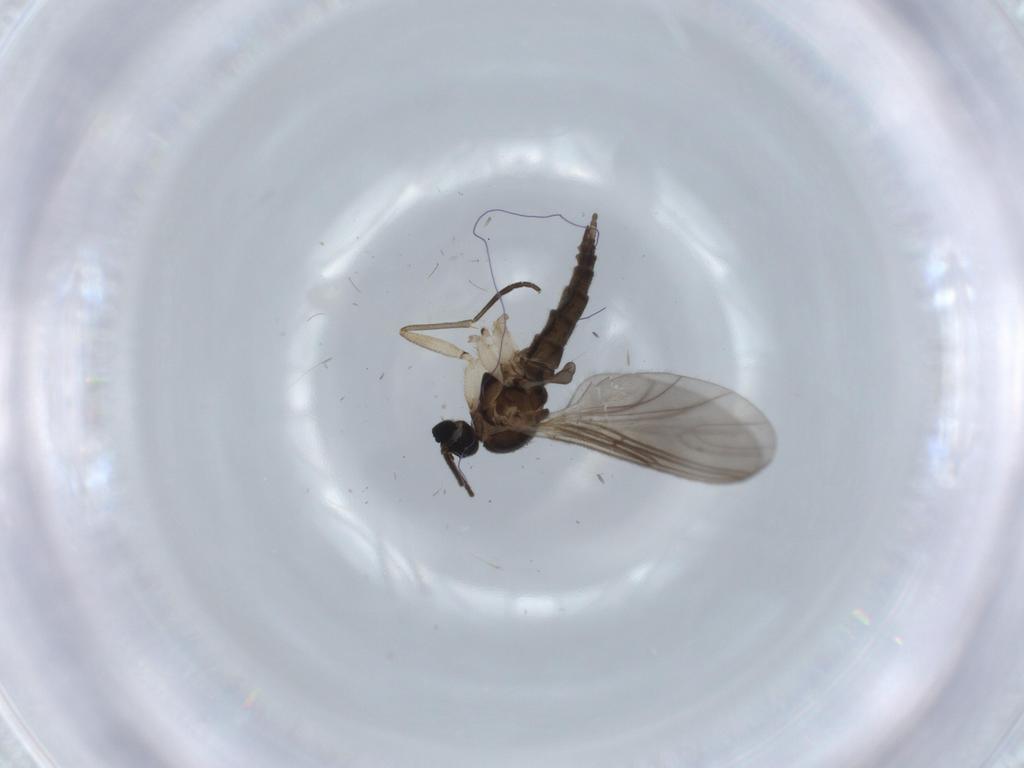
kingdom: Animalia
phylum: Arthropoda
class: Insecta
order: Diptera
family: Sciaridae
